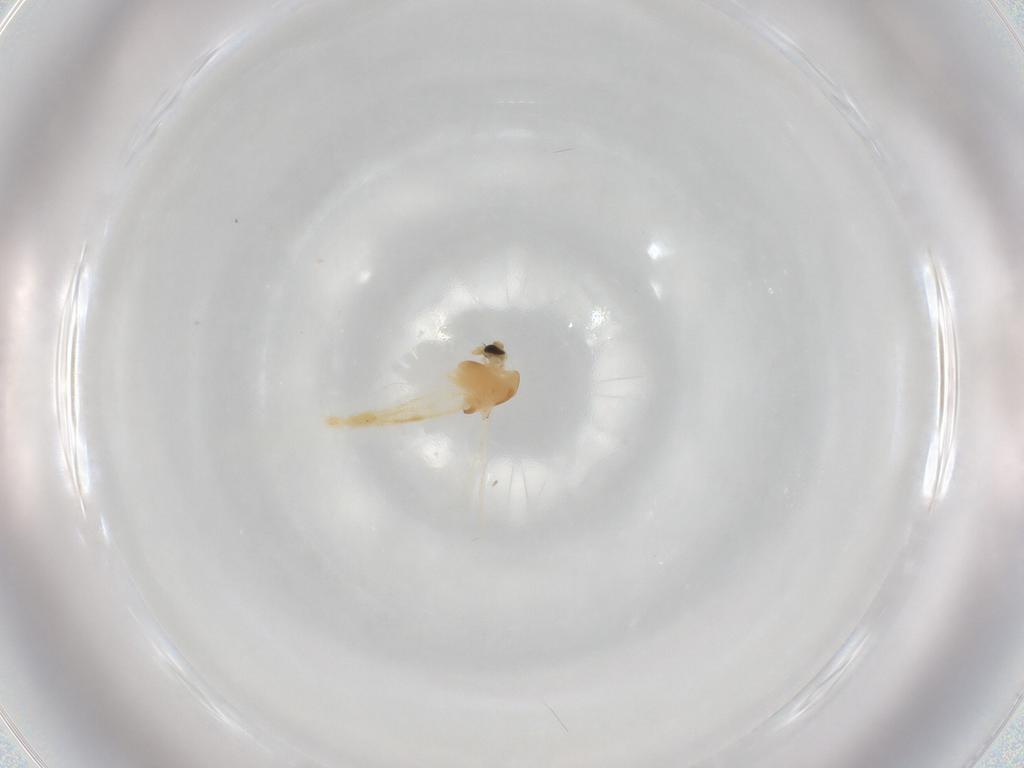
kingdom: Animalia
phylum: Arthropoda
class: Insecta
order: Diptera
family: Chironomidae
